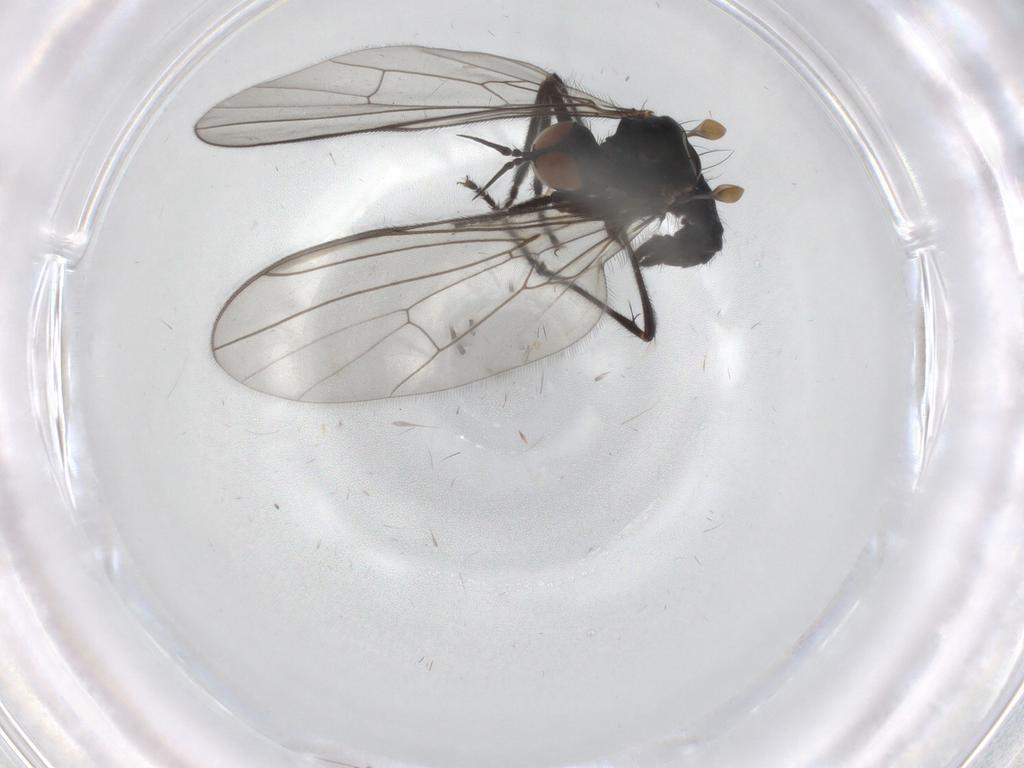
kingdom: Animalia
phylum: Arthropoda
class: Insecta
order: Diptera
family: Empididae
